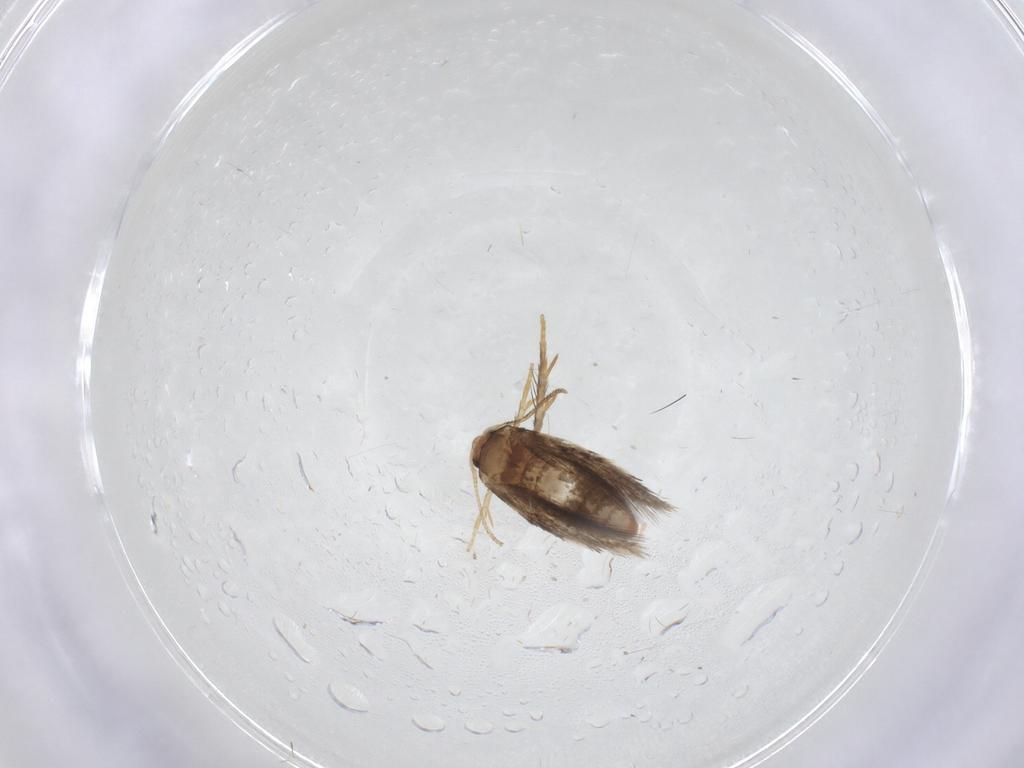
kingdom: Animalia
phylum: Arthropoda
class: Insecta
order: Lepidoptera
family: Nepticulidae
